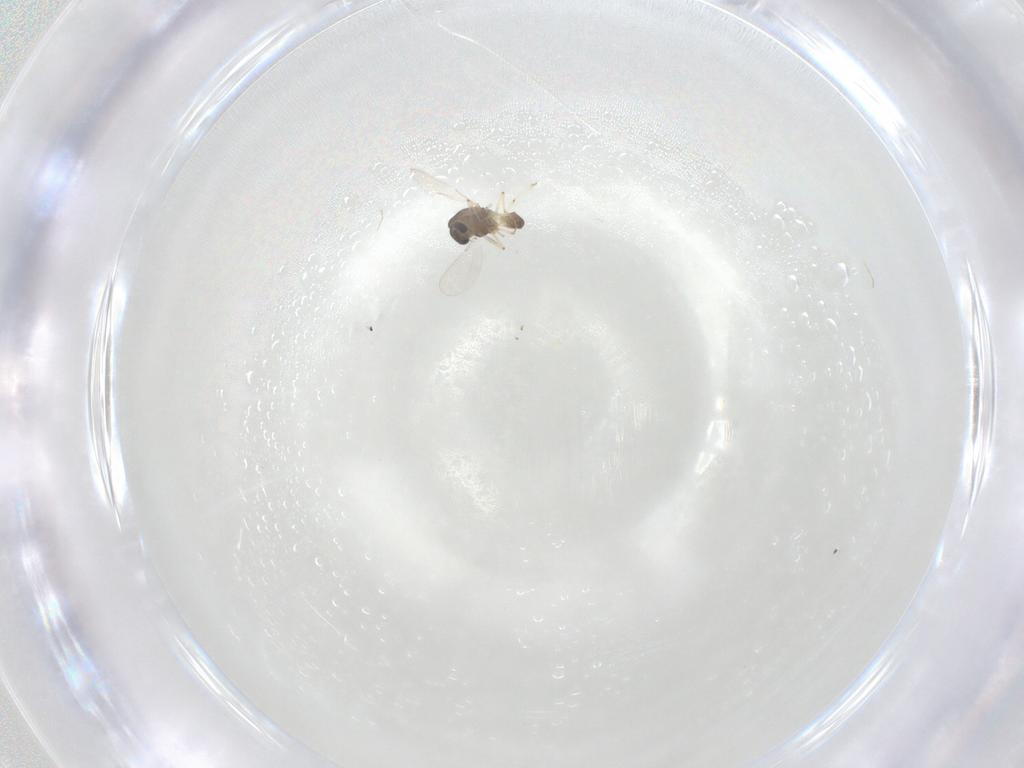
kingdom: Animalia
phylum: Arthropoda
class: Insecta
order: Diptera
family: Chironomidae
